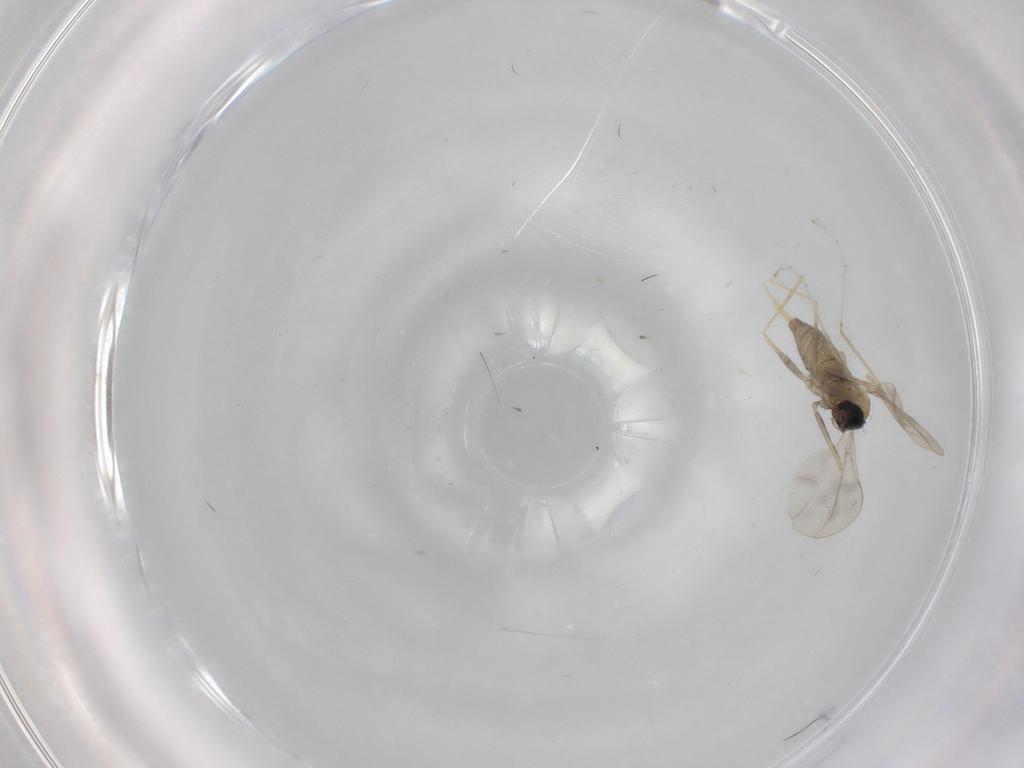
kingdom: Animalia
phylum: Arthropoda
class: Insecta
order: Diptera
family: Cecidomyiidae
